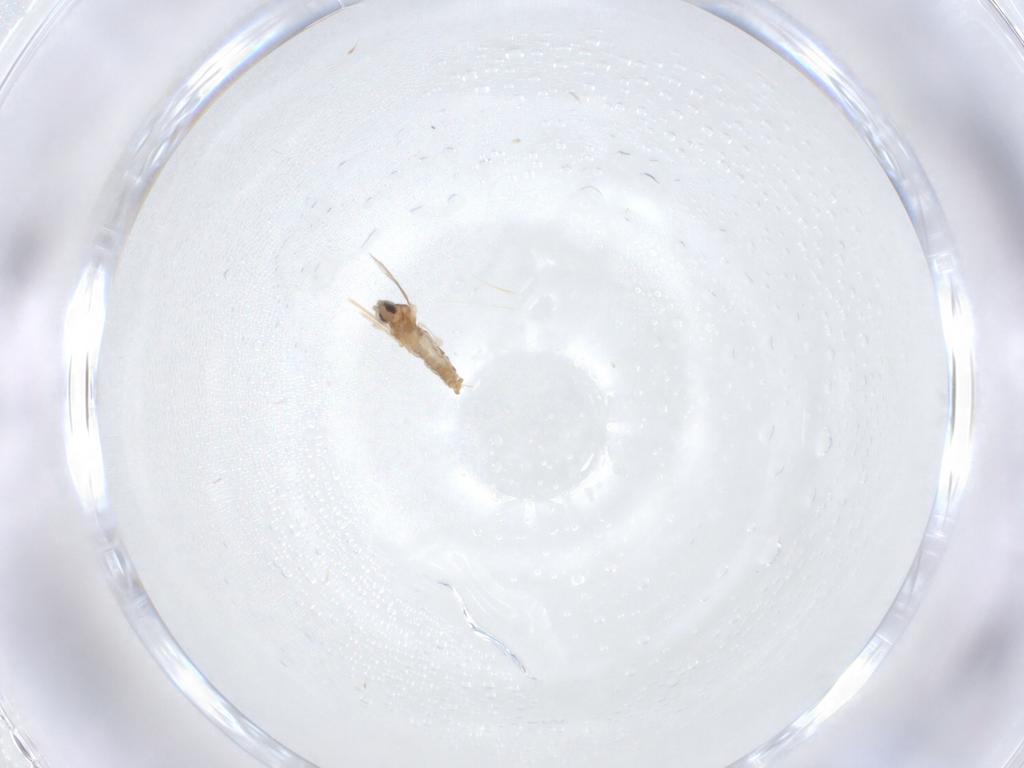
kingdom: Animalia
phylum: Arthropoda
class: Insecta
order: Diptera
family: Cecidomyiidae
